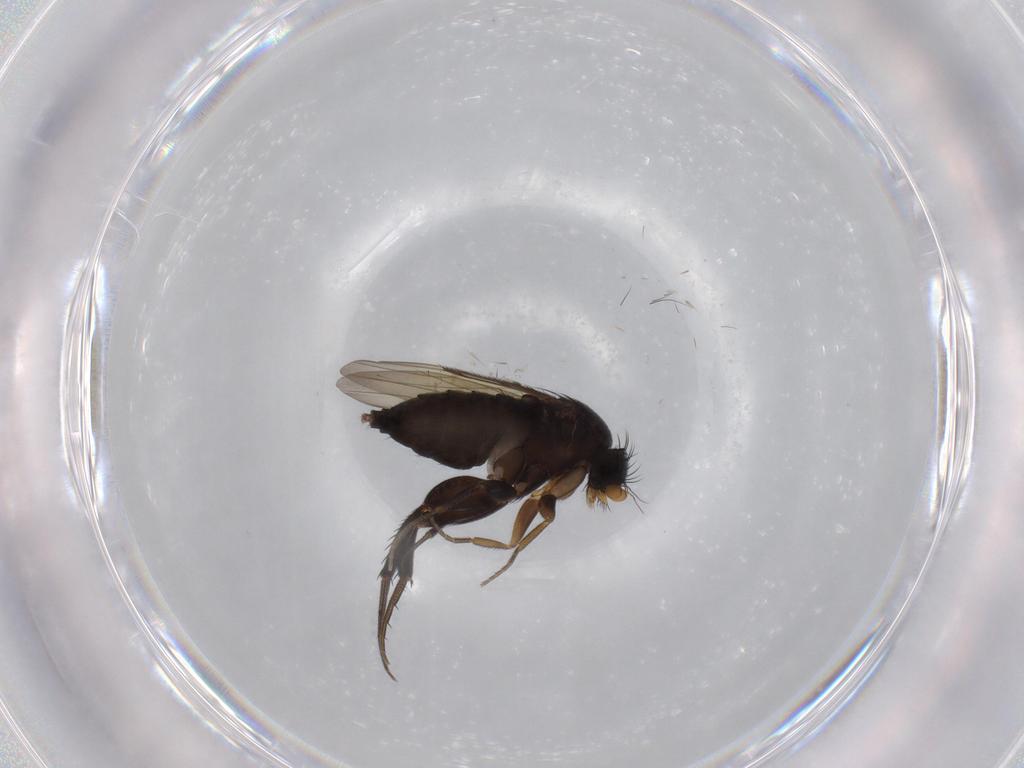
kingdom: Animalia
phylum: Arthropoda
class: Insecta
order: Diptera
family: Phoridae
